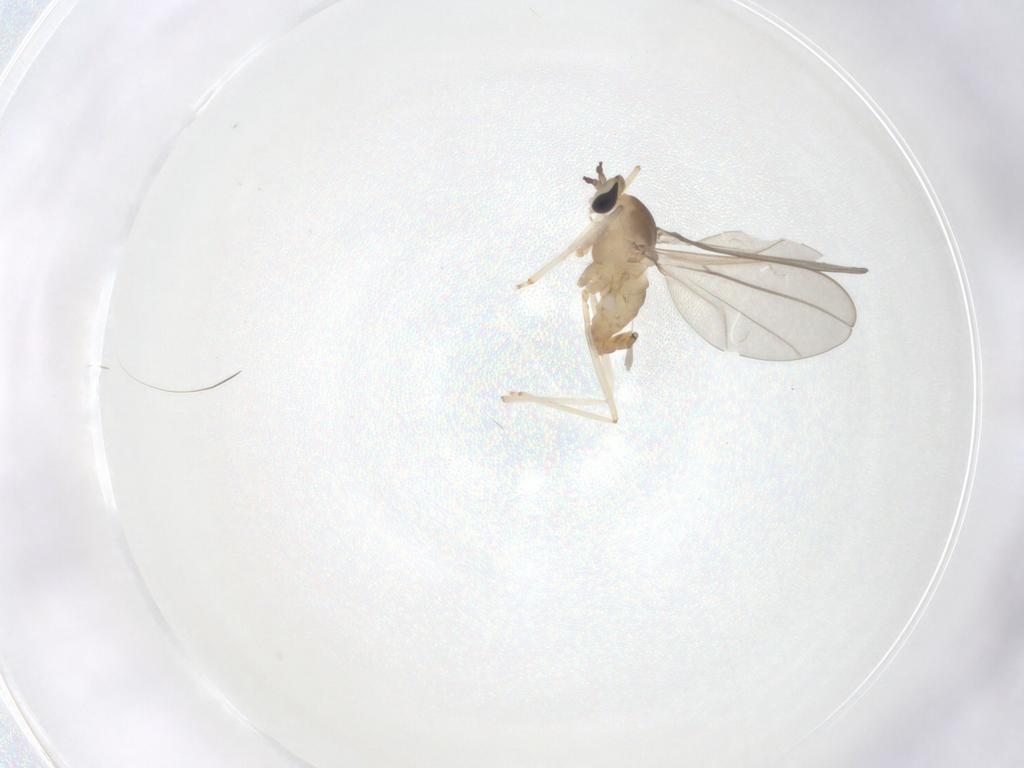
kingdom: Animalia
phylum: Arthropoda
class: Insecta
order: Diptera
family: Cecidomyiidae
